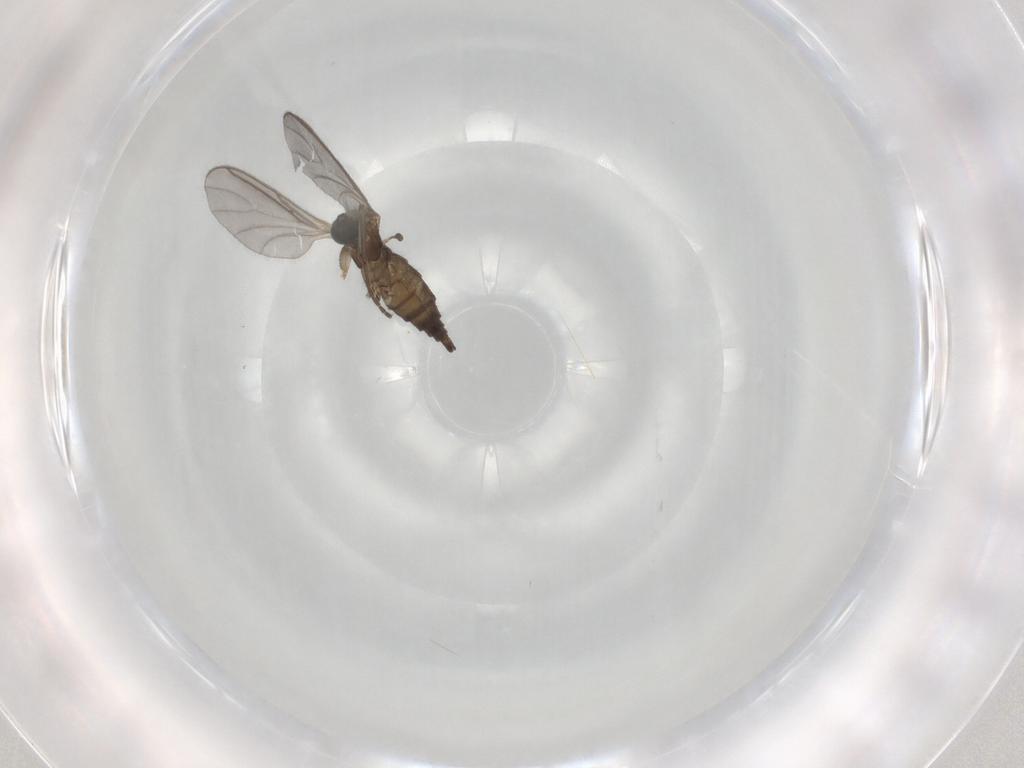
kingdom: Animalia
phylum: Arthropoda
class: Insecta
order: Diptera
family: Sciaridae
